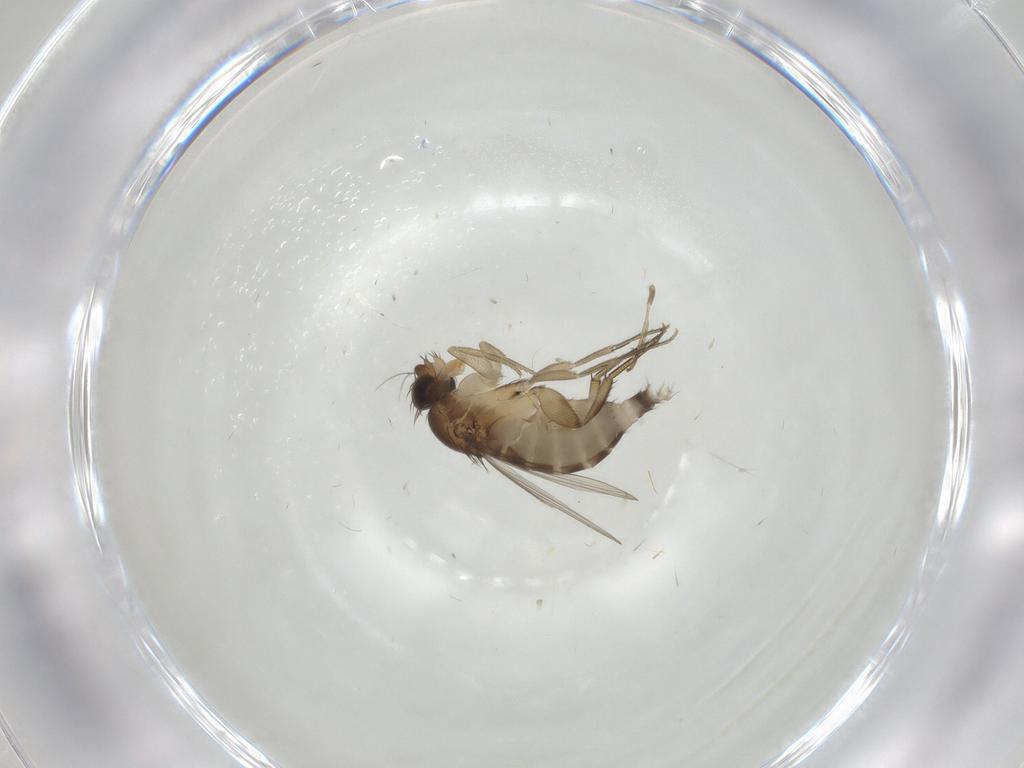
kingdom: Animalia
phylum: Arthropoda
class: Insecta
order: Diptera
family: Phoridae
